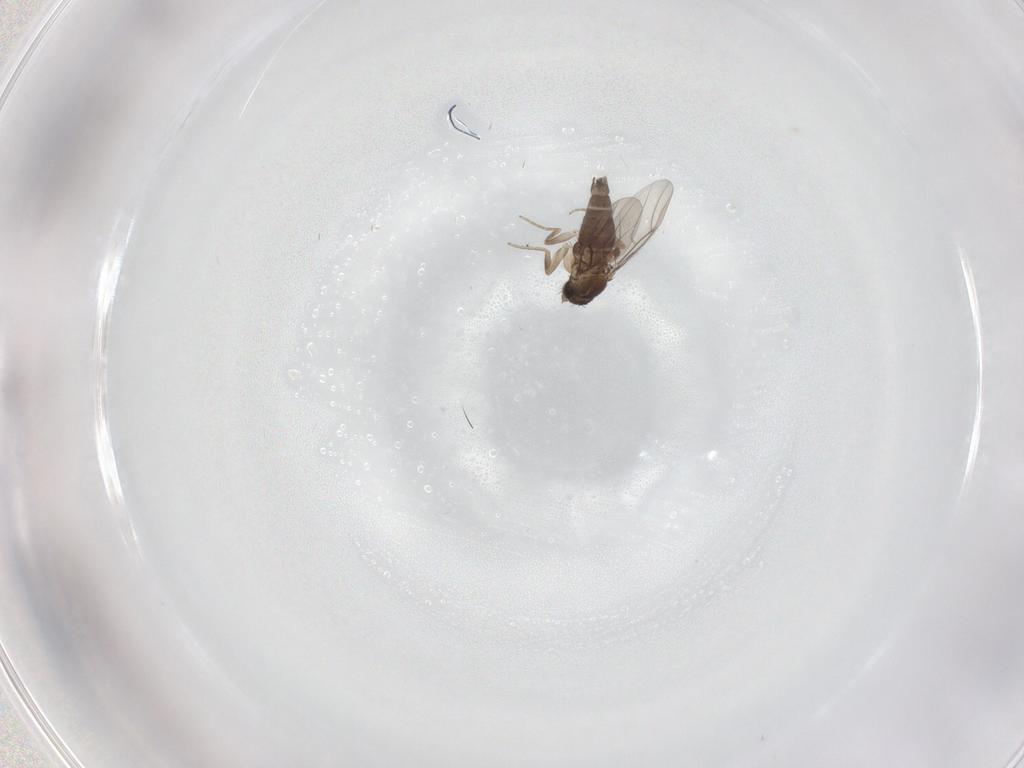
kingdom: Animalia
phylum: Arthropoda
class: Insecta
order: Diptera
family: Phoridae
